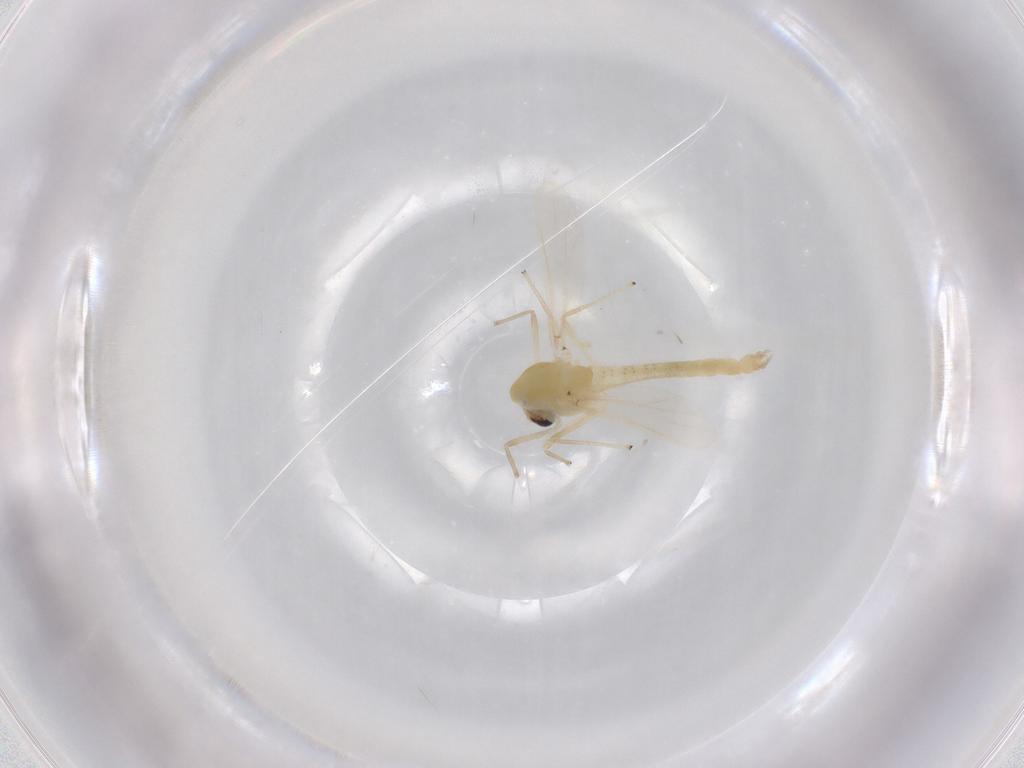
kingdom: Animalia
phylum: Arthropoda
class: Insecta
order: Diptera
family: Chironomidae
